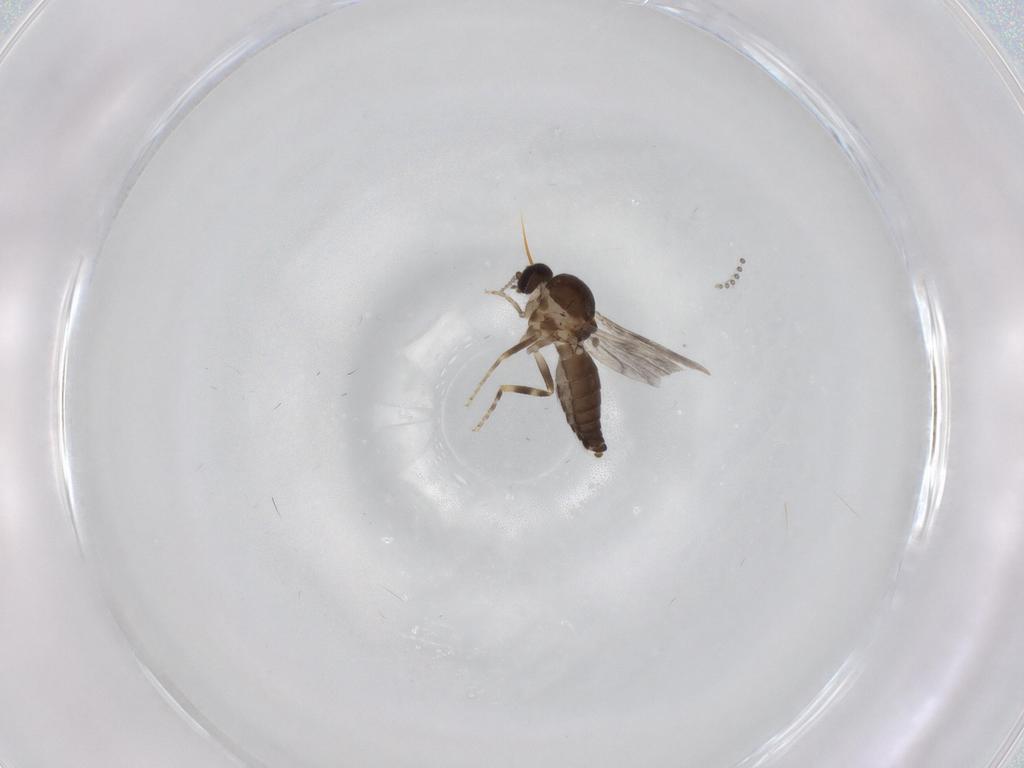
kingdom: Animalia
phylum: Arthropoda
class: Insecta
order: Diptera
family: Ceratopogonidae
